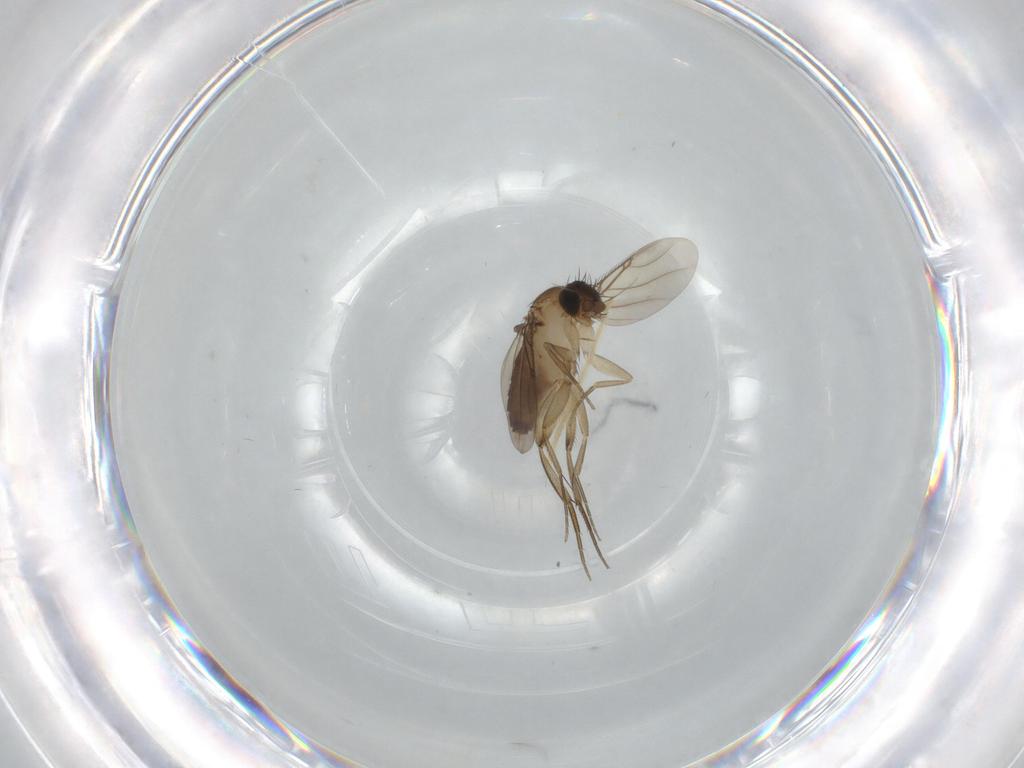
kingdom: Animalia
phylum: Arthropoda
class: Insecta
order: Diptera
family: Phoridae
